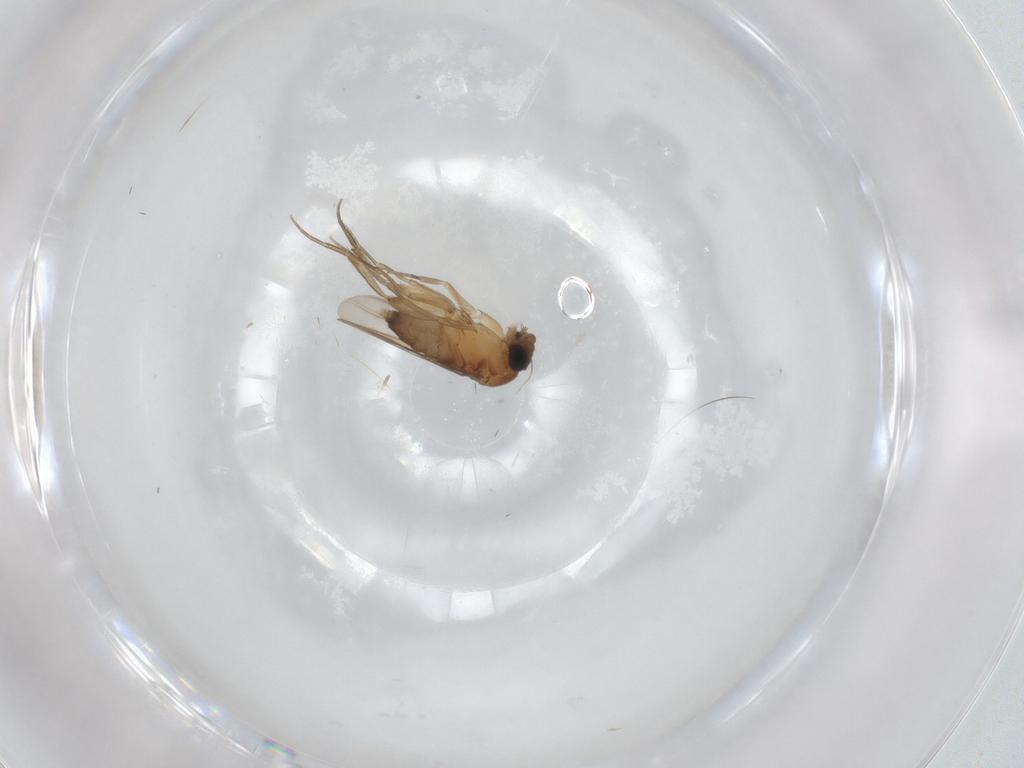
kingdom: Animalia
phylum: Arthropoda
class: Insecta
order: Diptera
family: Phoridae
